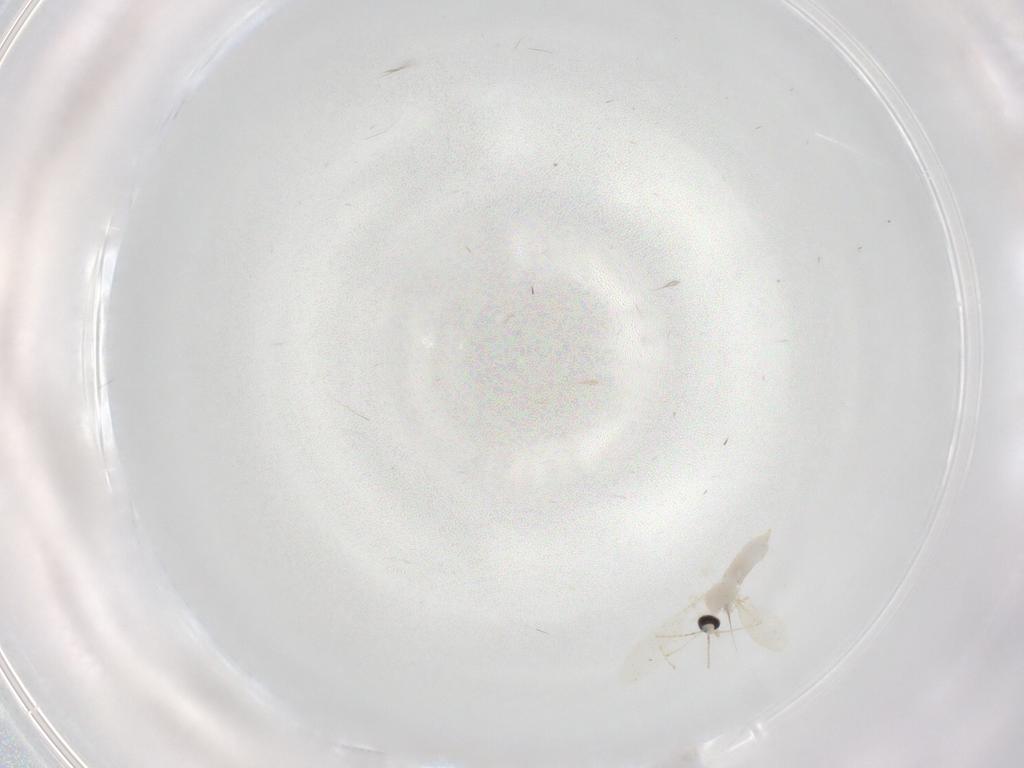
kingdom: Animalia
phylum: Arthropoda
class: Insecta
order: Diptera
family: Cecidomyiidae
